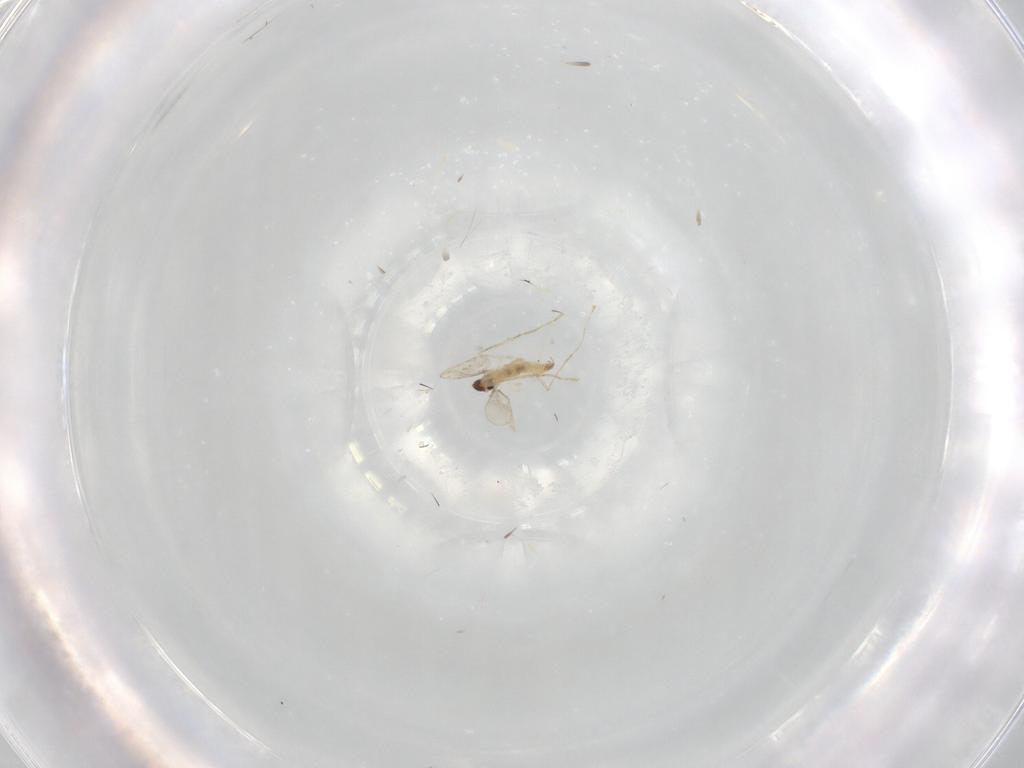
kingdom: Animalia
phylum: Arthropoda
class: Insecta
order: Diptera
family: Cecidomyiidae
